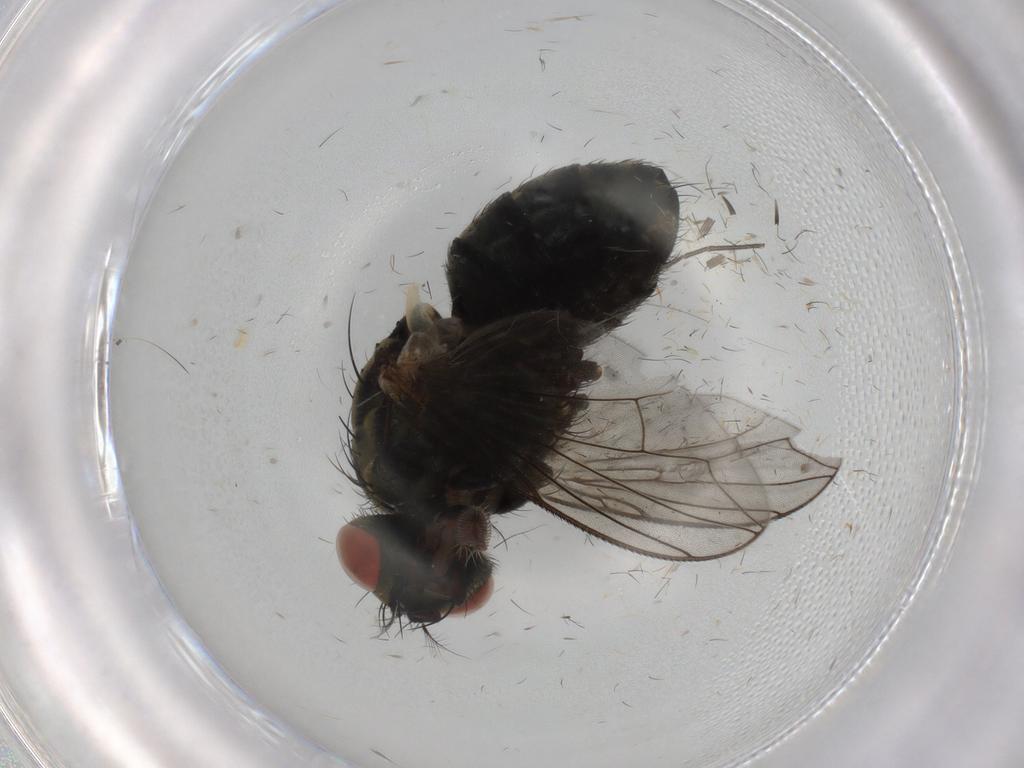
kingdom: Animalia
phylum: Arthropoda
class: Insecta
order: Diptera
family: Sarcophagidae
